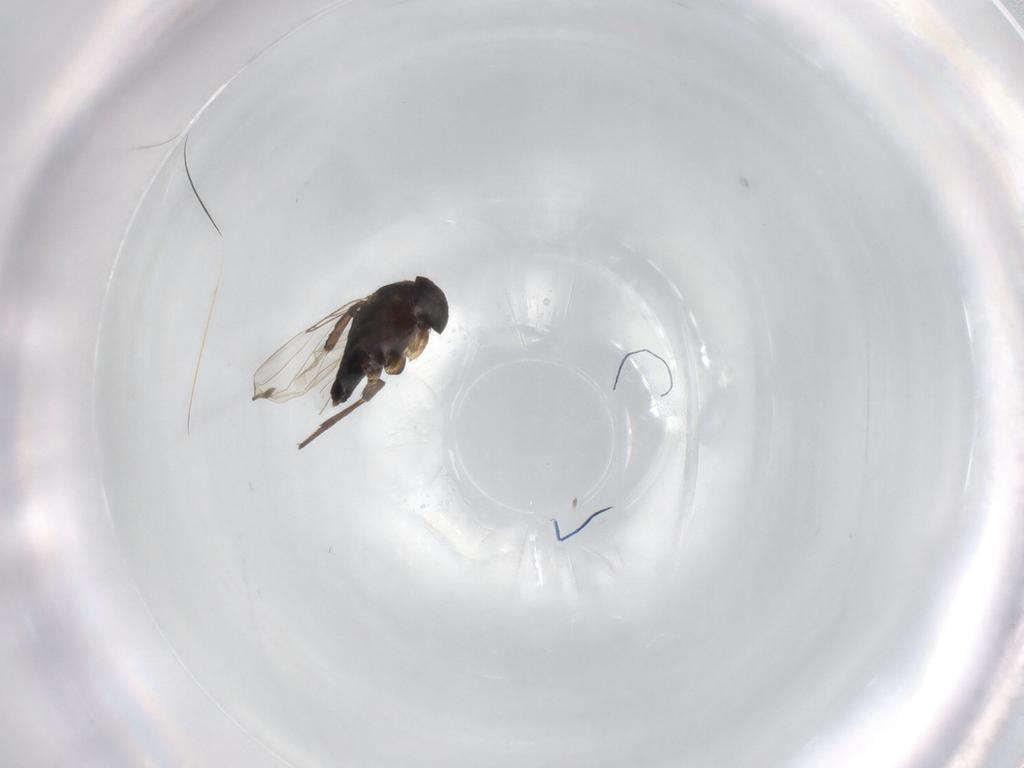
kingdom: Animalia
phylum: Arthropoda
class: Insecta
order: Diptera
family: Phoridae
